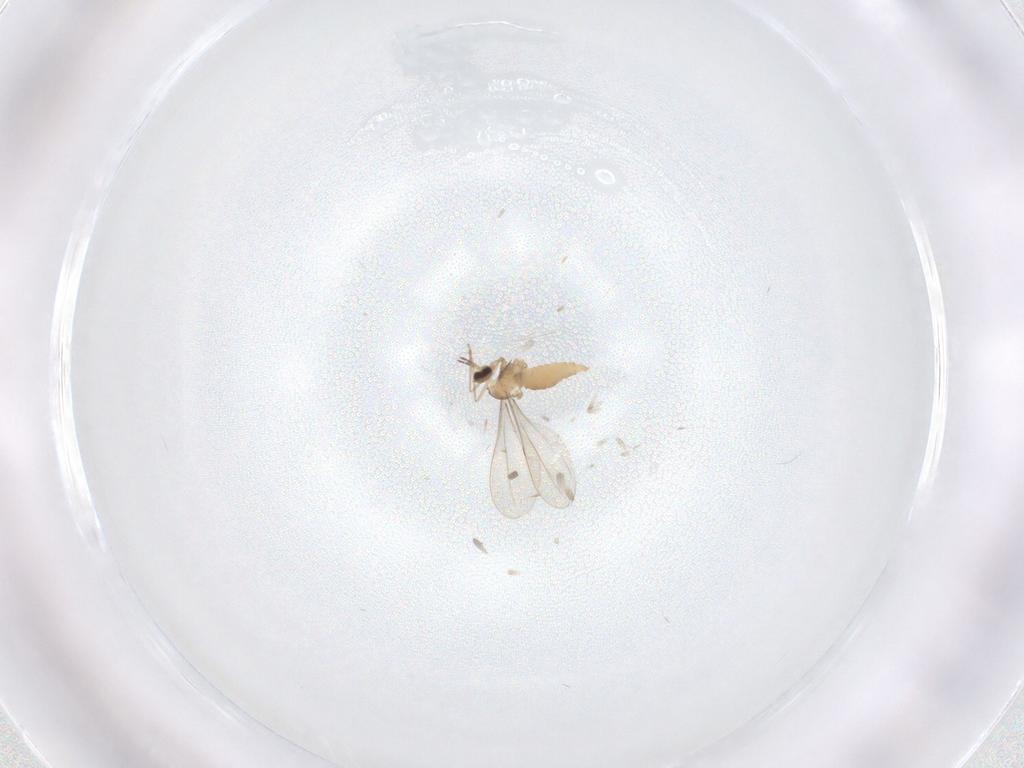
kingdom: Animalia
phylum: Arthropoda
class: Insecta
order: Diptera
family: Cecidomyiidae
